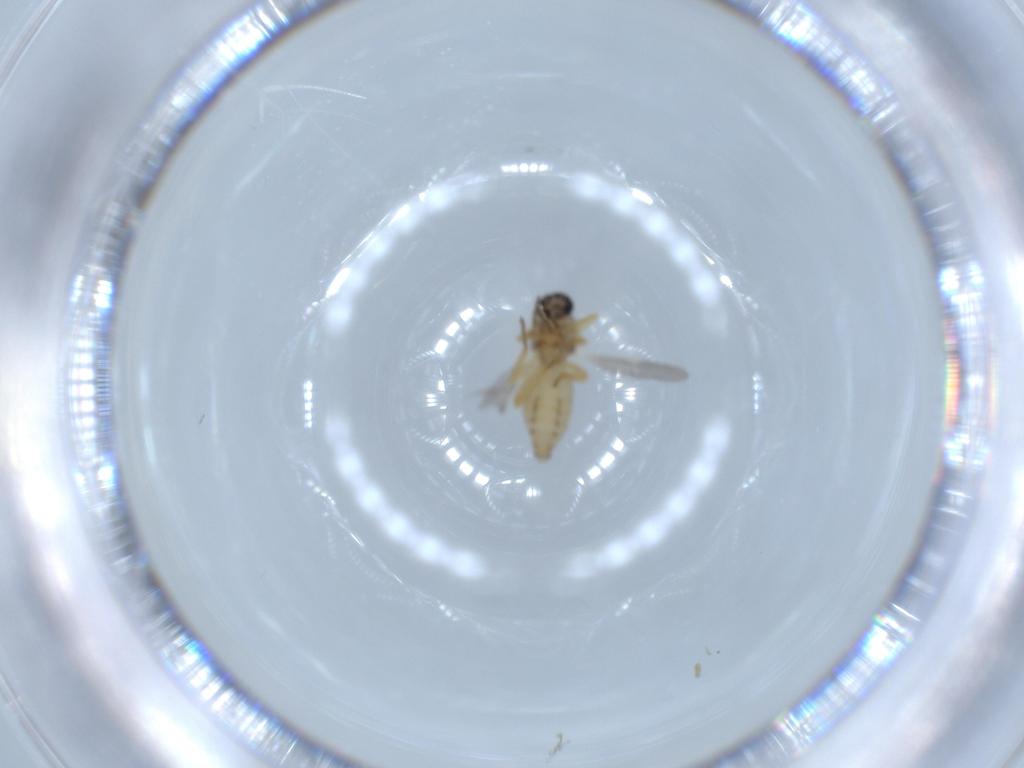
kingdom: Animalia
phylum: Arthropoda
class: Insecta
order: Diptera
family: Ceratopogonidae
